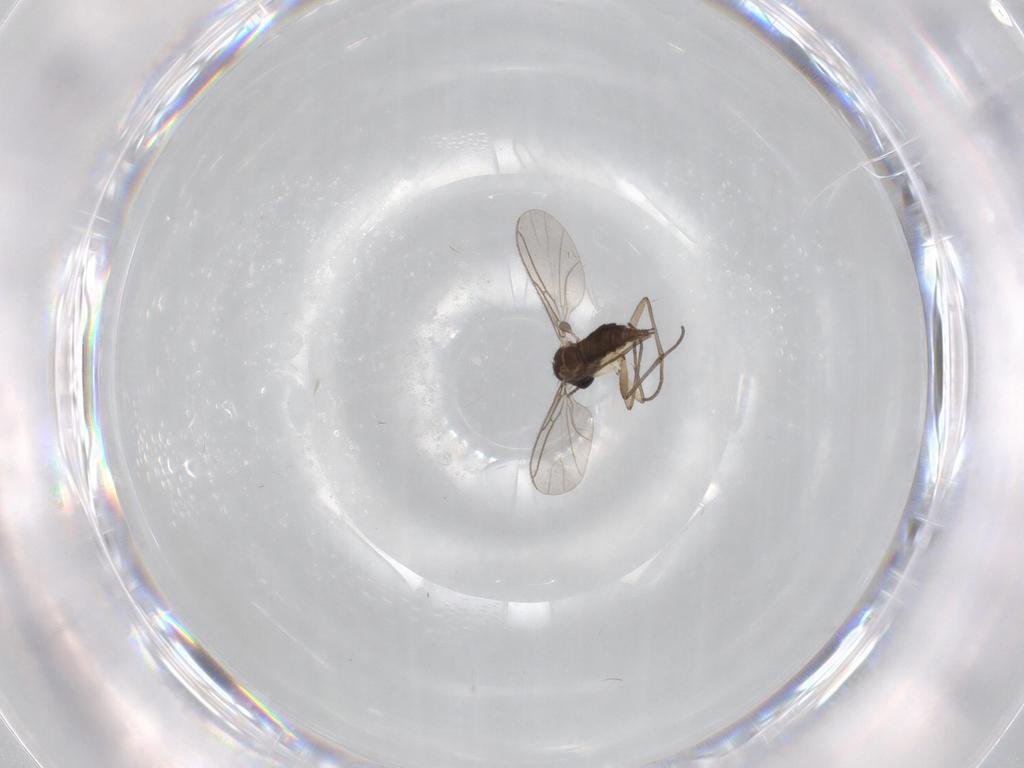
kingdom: Animalia
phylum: Arthropoda
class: Insecta
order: Diptera
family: Sciaridae
